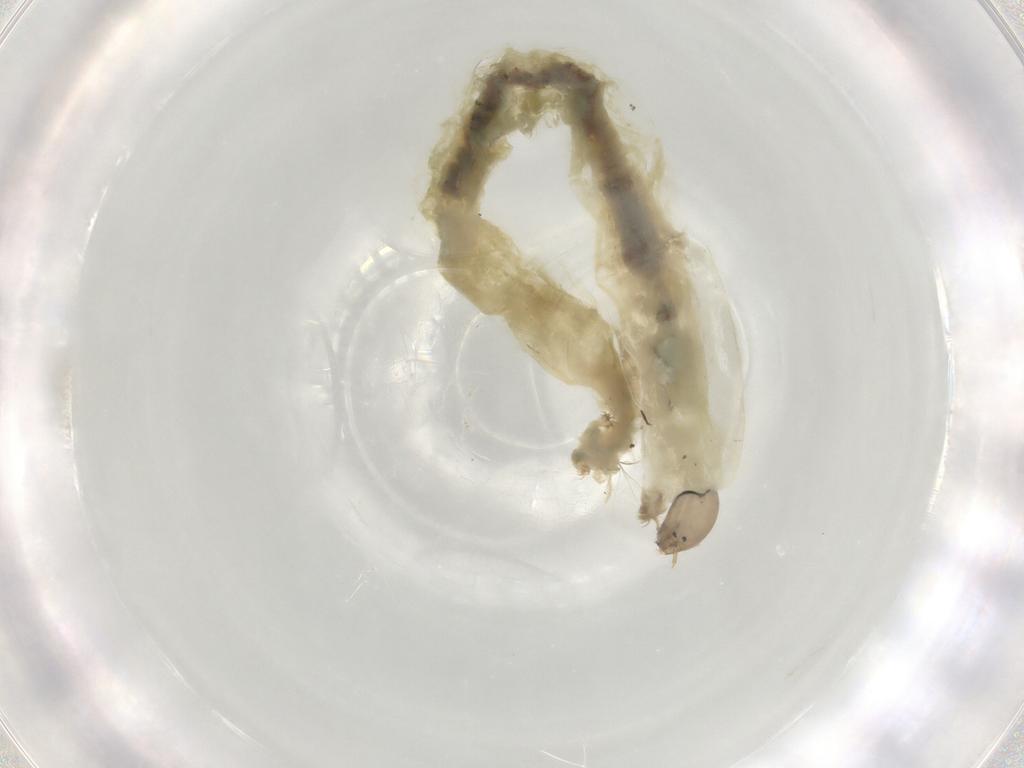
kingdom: Animalia
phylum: Arthropoda
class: Insecta
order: Diptera
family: Chironomidae
